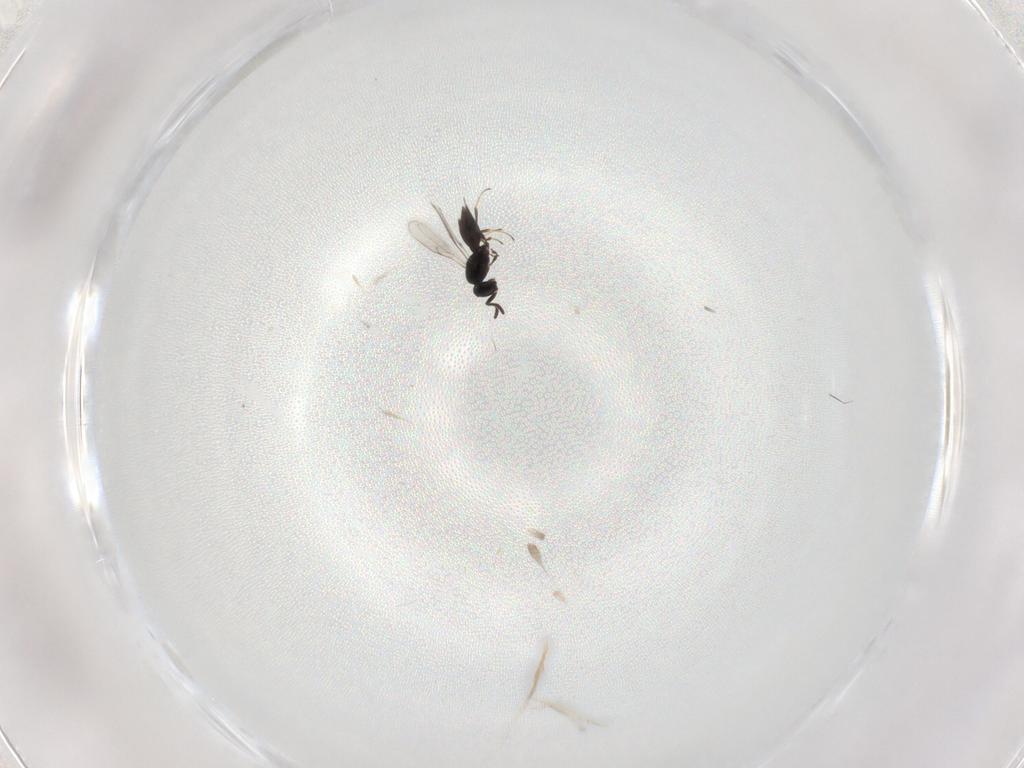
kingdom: Animalia
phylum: Arthropoda
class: Insecta
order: Hymenoptera
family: Scelionidae
